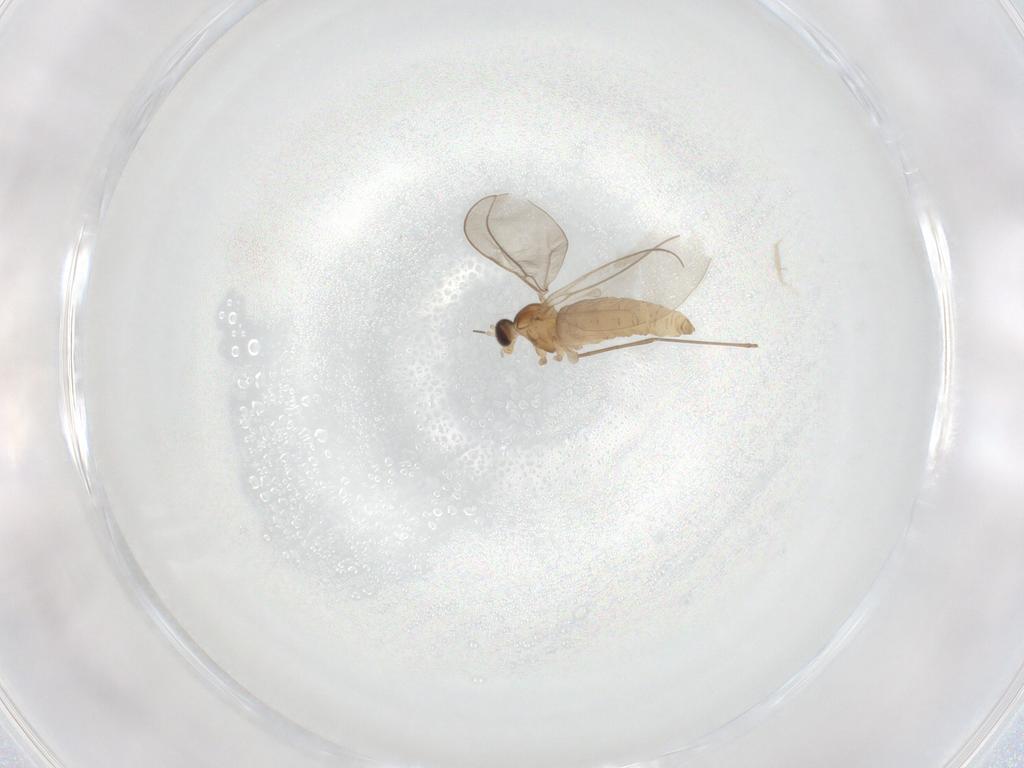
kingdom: Animalia
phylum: Arthropoda
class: Insecta
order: Diptera
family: Cecidomyiidae
